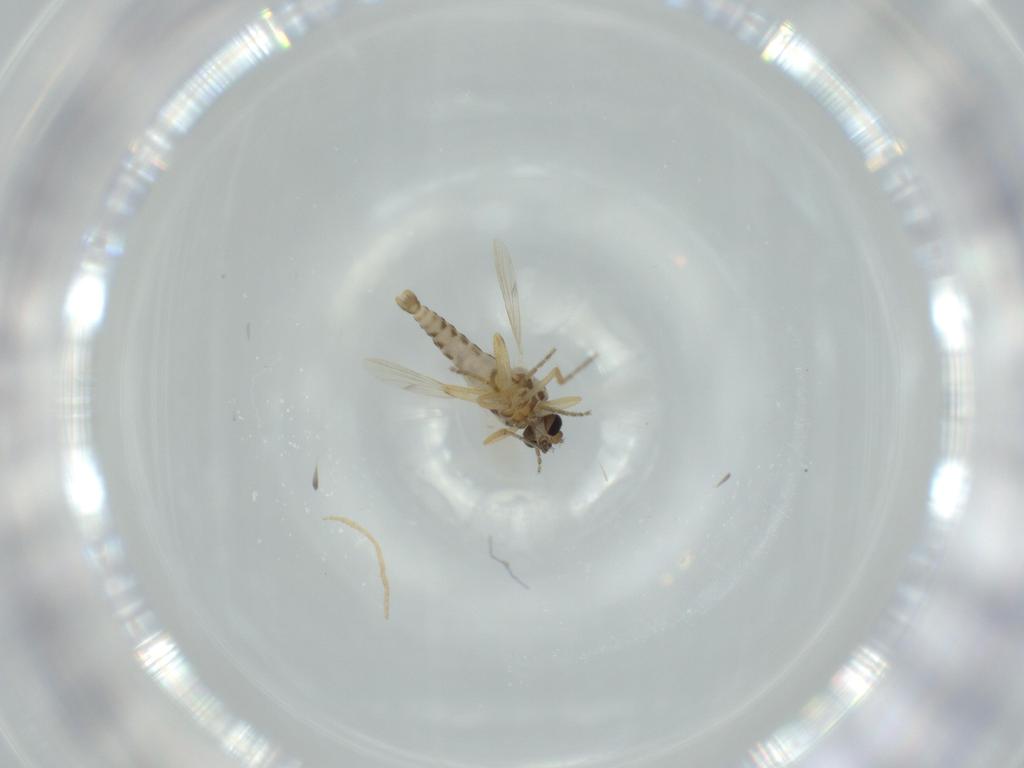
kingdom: Animalia
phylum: Arthropoda
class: Insecta
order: Diptera
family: Ceratopogonidae
